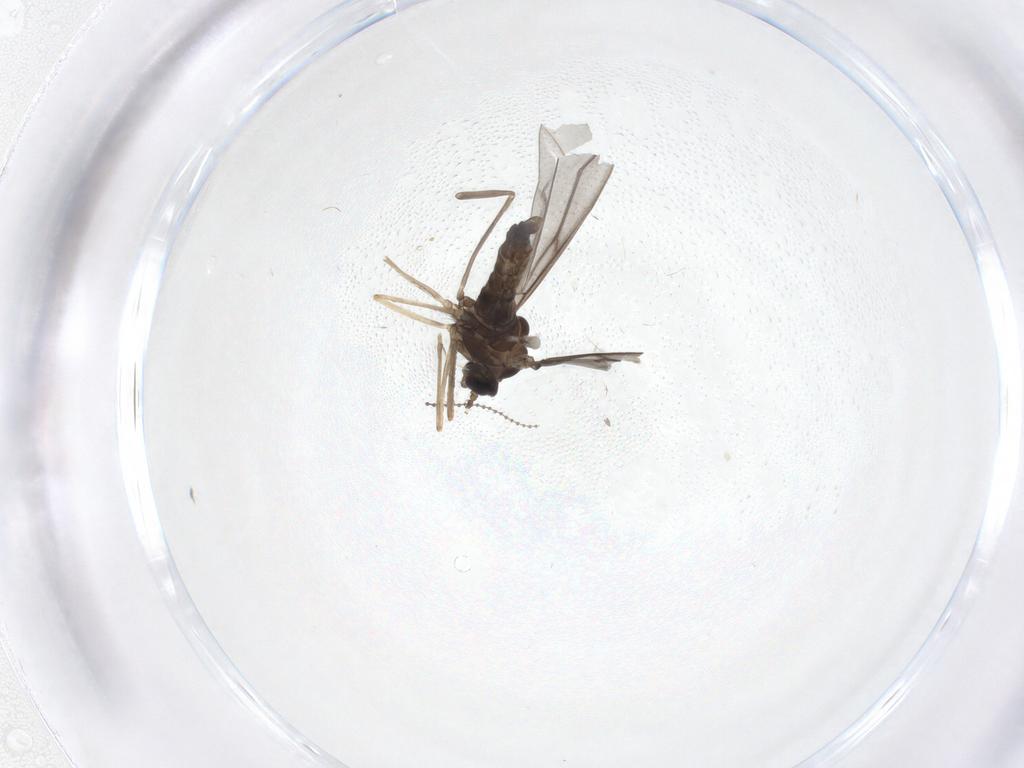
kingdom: Animalia
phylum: Arthropoda
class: Insecta
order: Diptera
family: Cecidomyiidae
